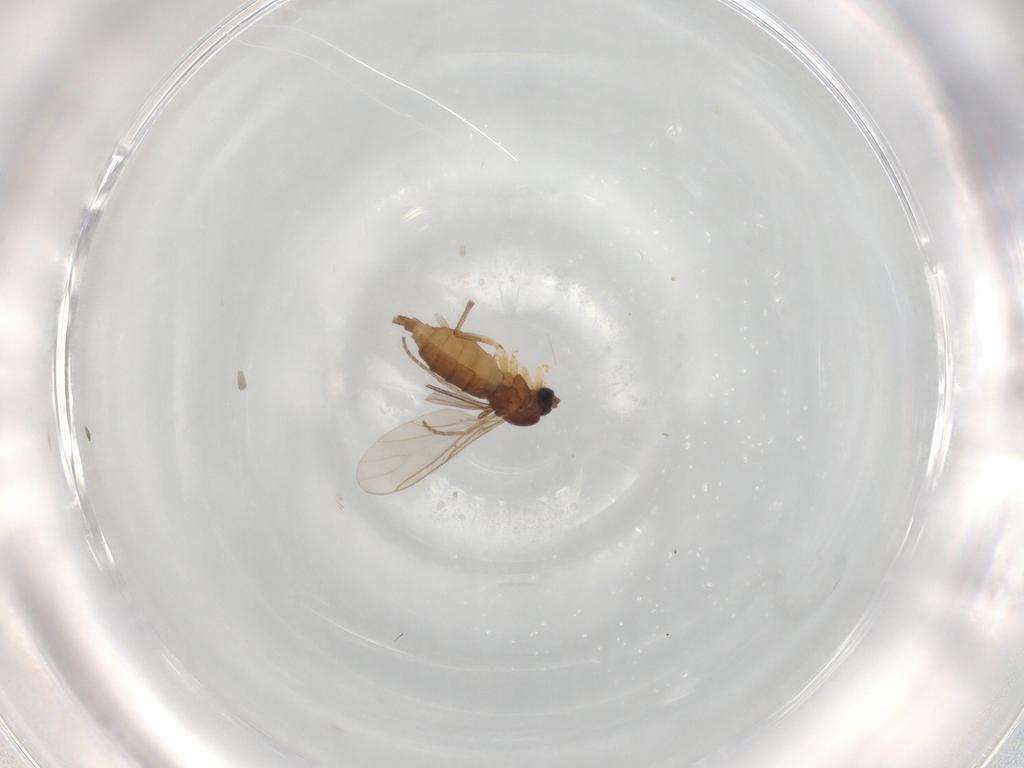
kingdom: Animalia
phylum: Arthropoda
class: Insecta
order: Diptera
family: Sciaridae
